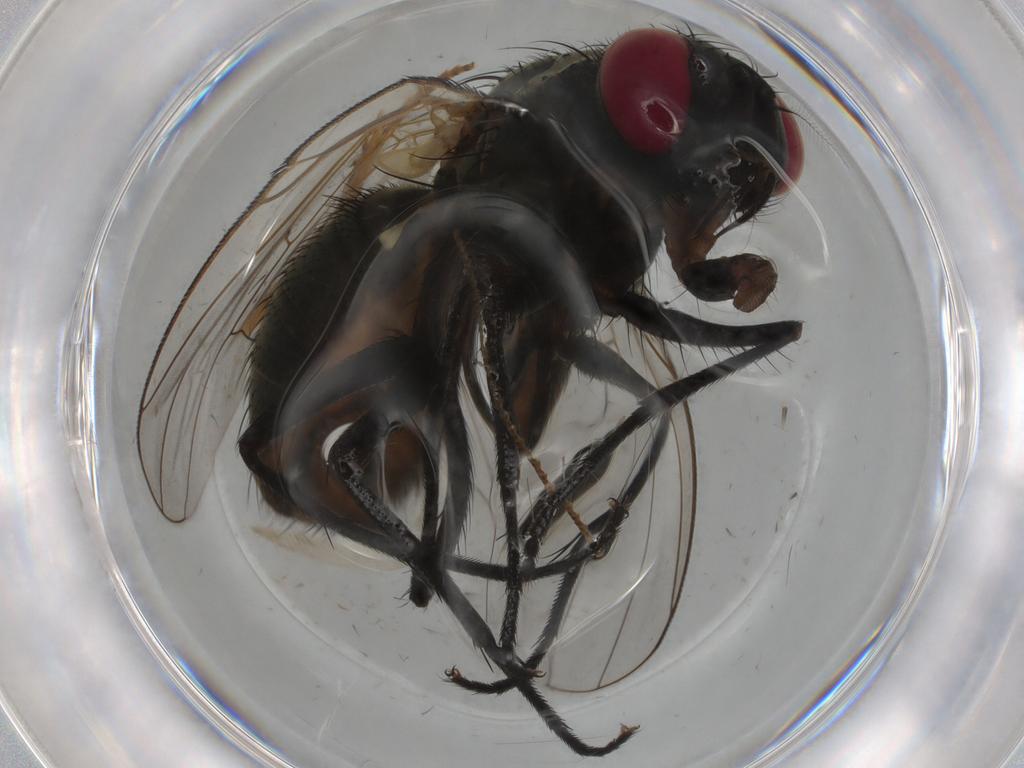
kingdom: Animalia
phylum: Arthropoda
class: Insecta
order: Diptera
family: Muscidae
